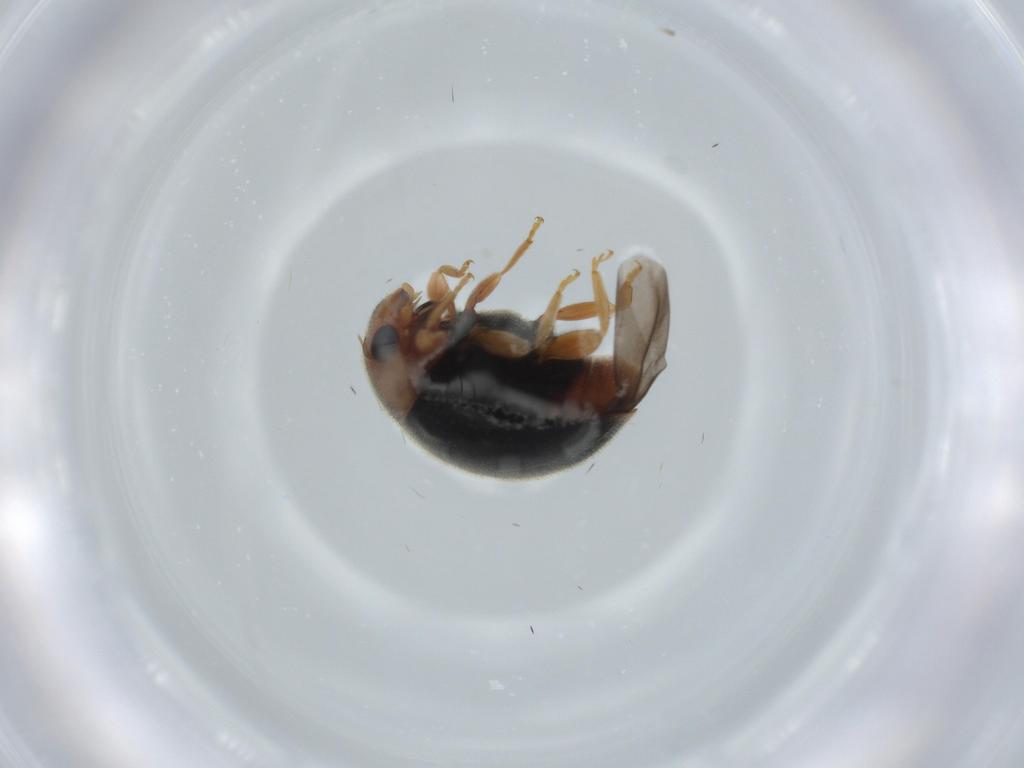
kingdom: Animalia
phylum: Arthropoda
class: Insecta
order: Coleoptera
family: Coccinellidae
